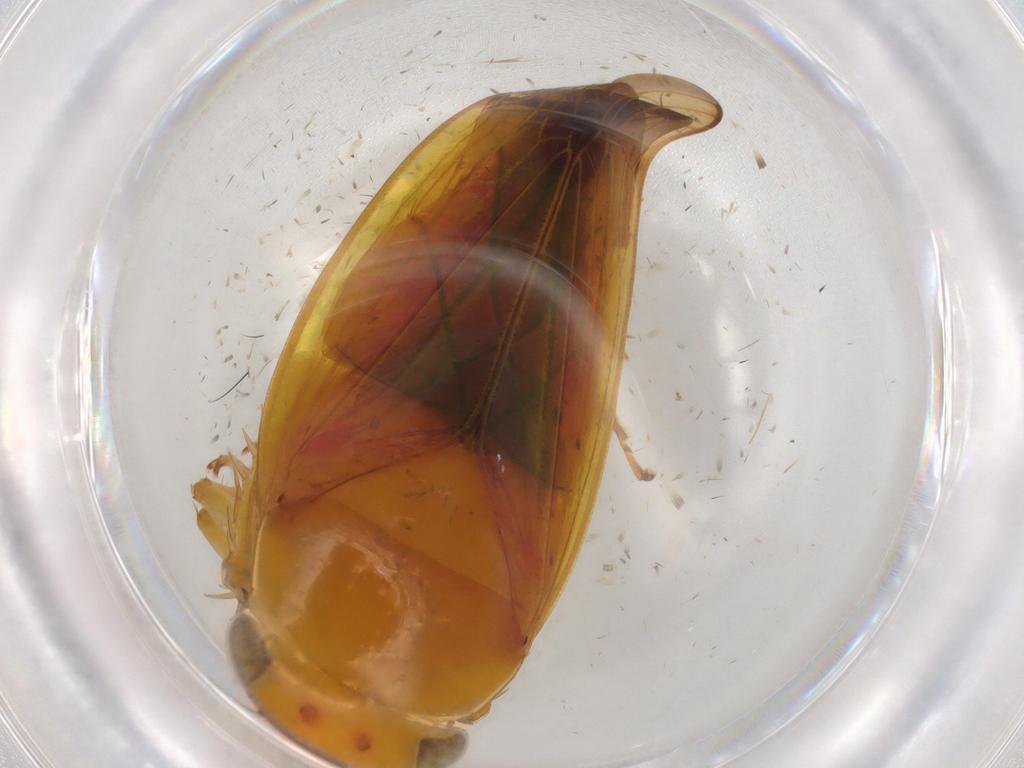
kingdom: Animalia
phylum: Arthropoda
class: Insecta
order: Hemiptera
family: Cicadellidae
